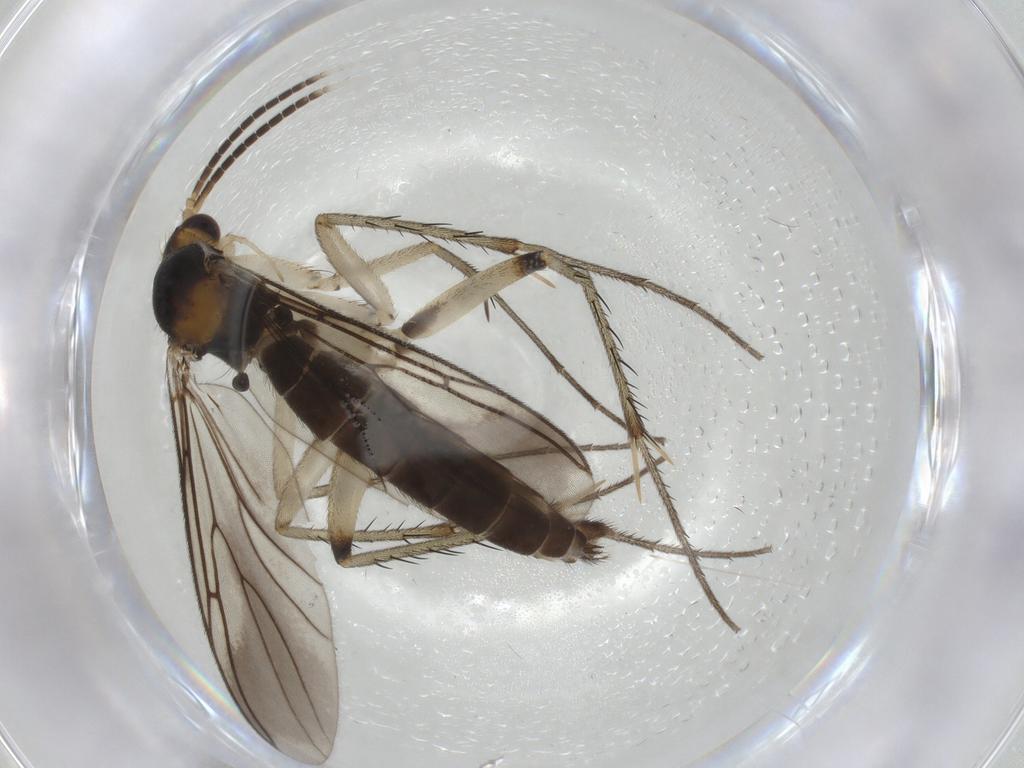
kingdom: Animalia
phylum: Arthropoda
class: Insecta
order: Diptera
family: Mycetophilidae
